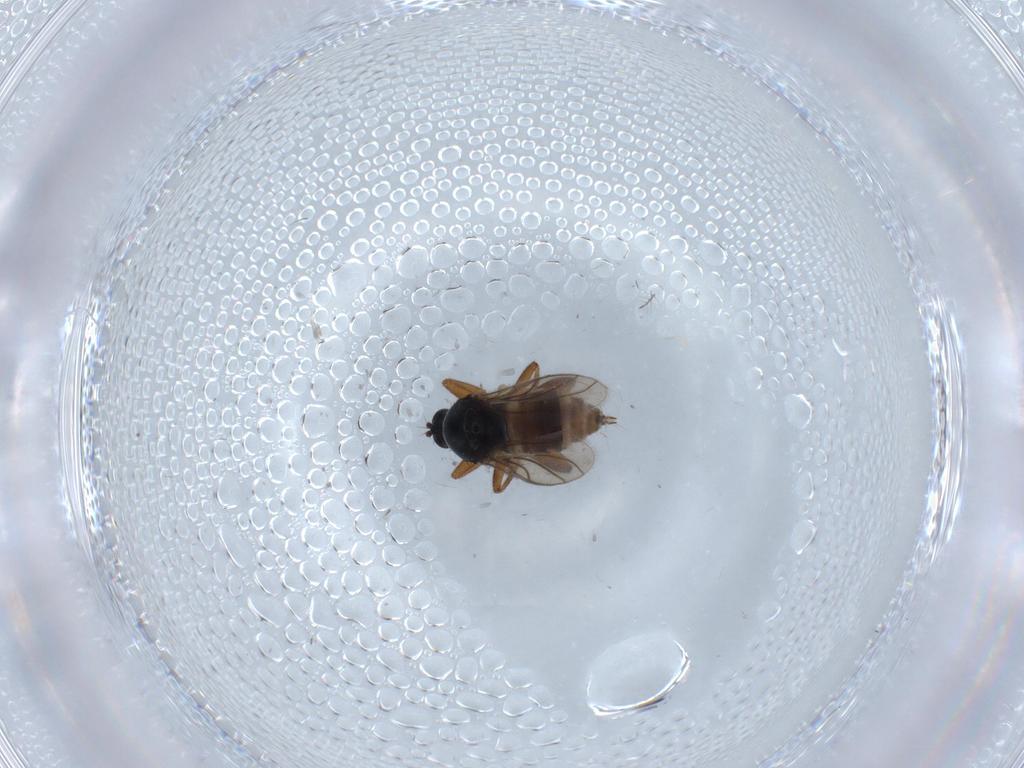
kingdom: Animalia
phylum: Arthropoda
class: Insecta
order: Diptera
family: Hybotidae
